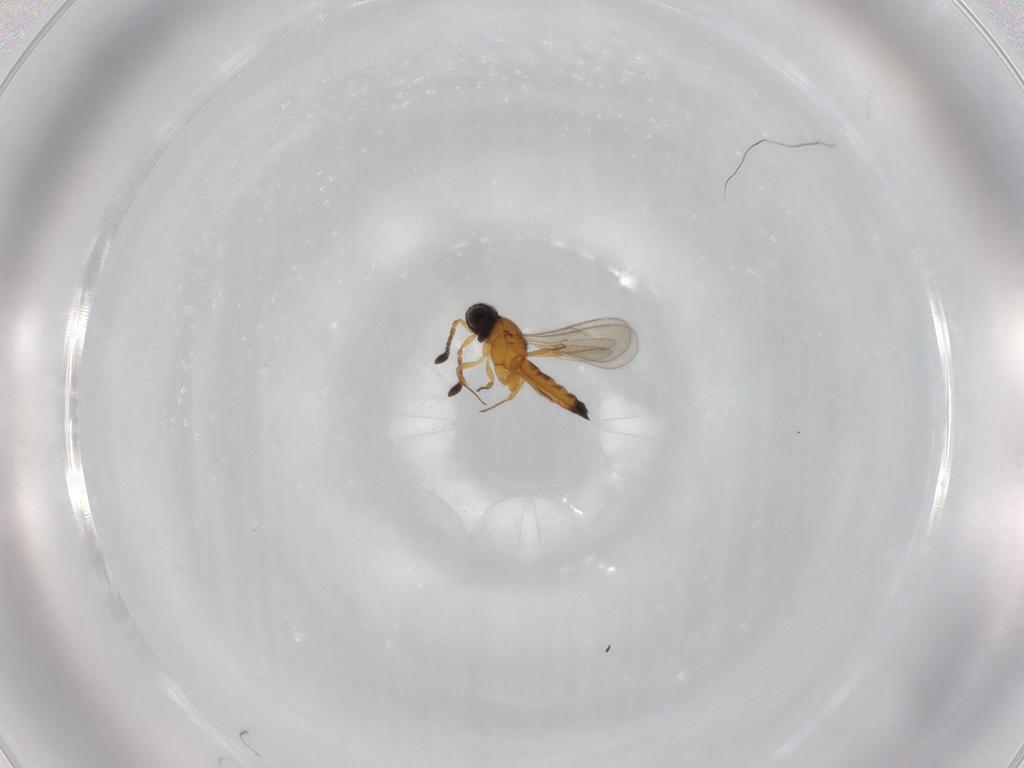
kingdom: Animalia
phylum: Arthropoda
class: Insecta
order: Hymenoptera
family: Scelionidae
